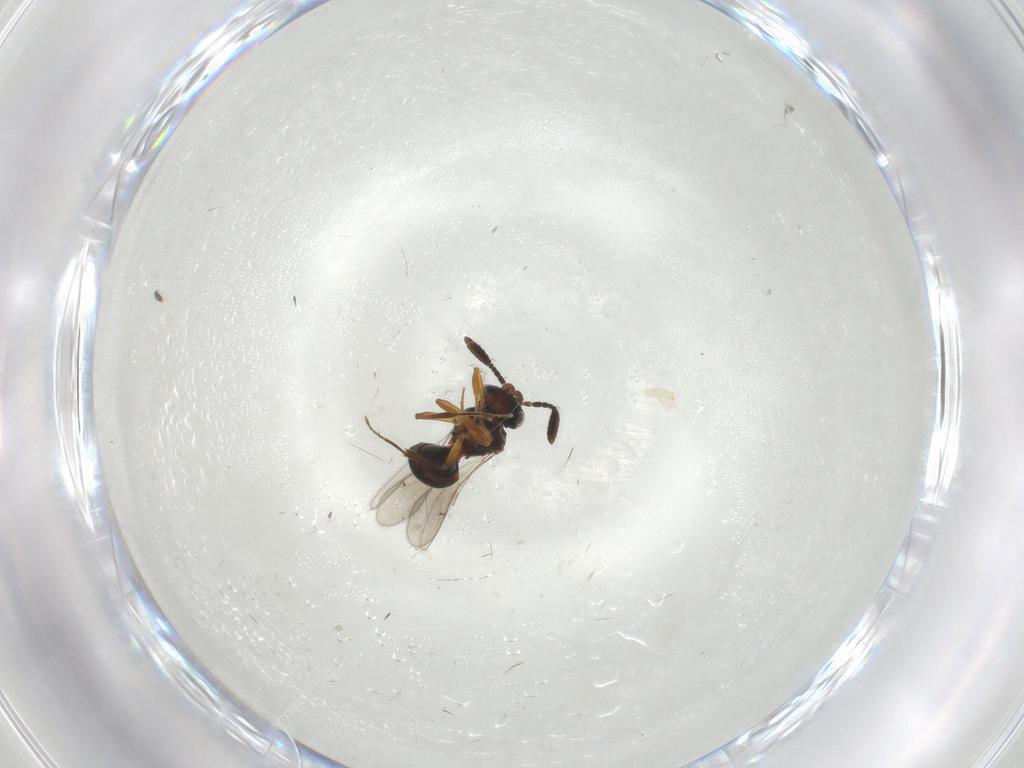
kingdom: Animalia
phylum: Arthropoda
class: Insecta
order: Hymenoptera
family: Scelionidae
